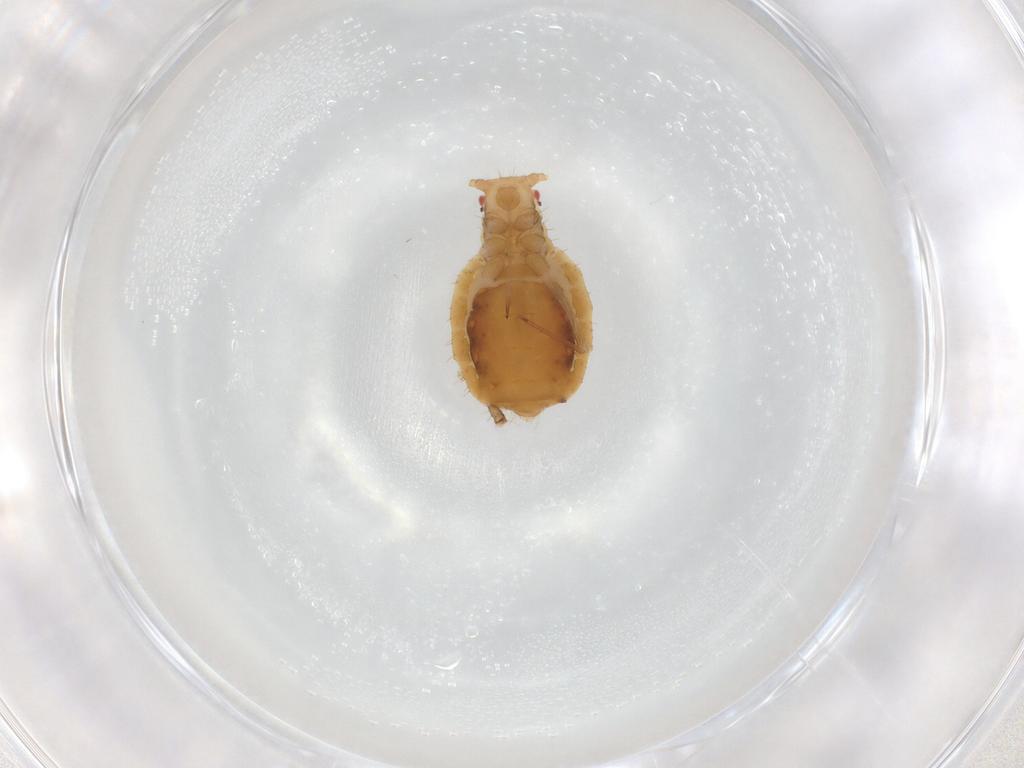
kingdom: Animalia
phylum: Arthropoda
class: Insecta
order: Hemiptera
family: Aphididae
